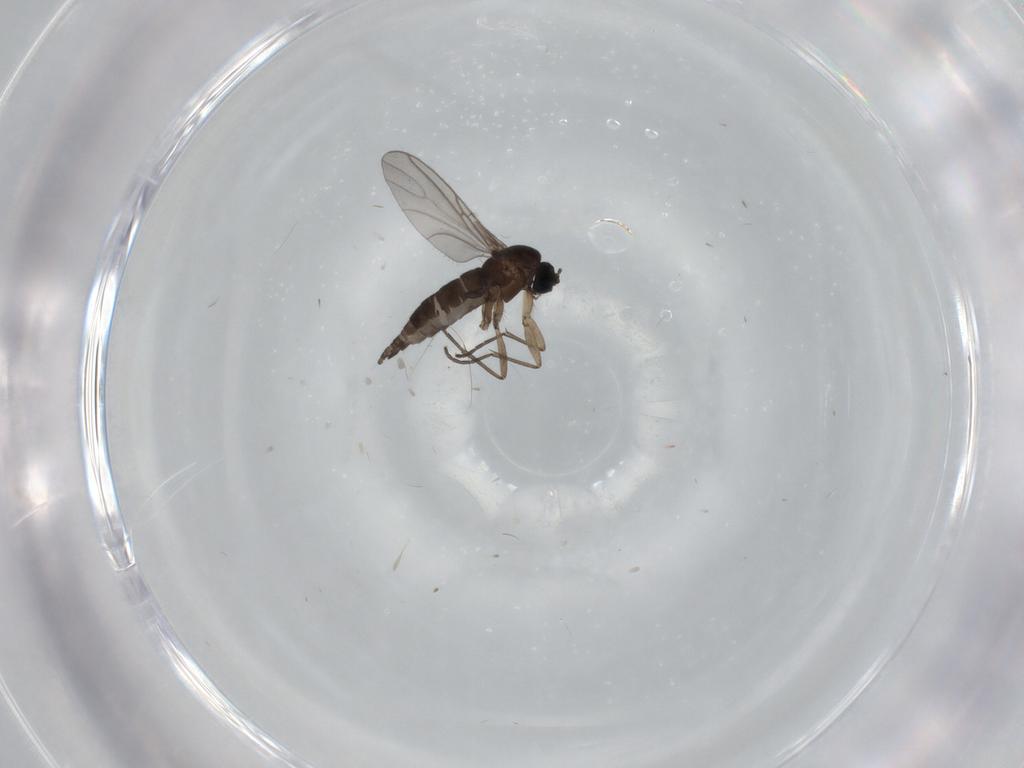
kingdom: Animalia
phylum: Arthropoda
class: Insecta
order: Diptera
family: Sciaridae
